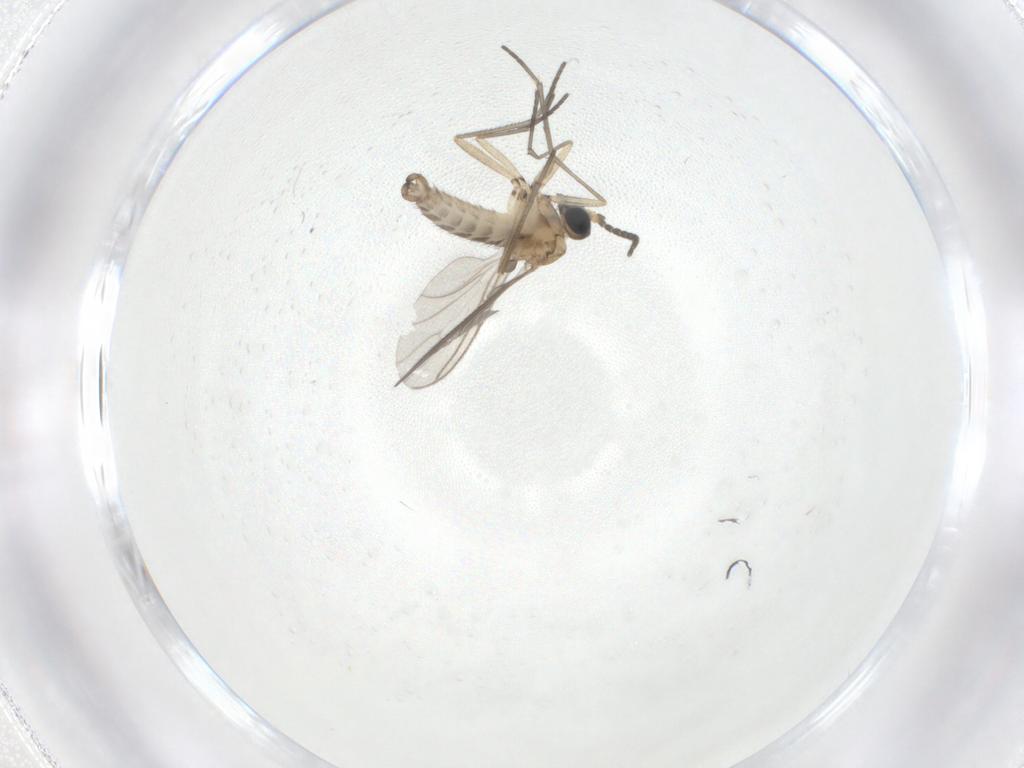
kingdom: Animalia
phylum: Arthropoda
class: Insecta
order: Diptera
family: Sciaridae
